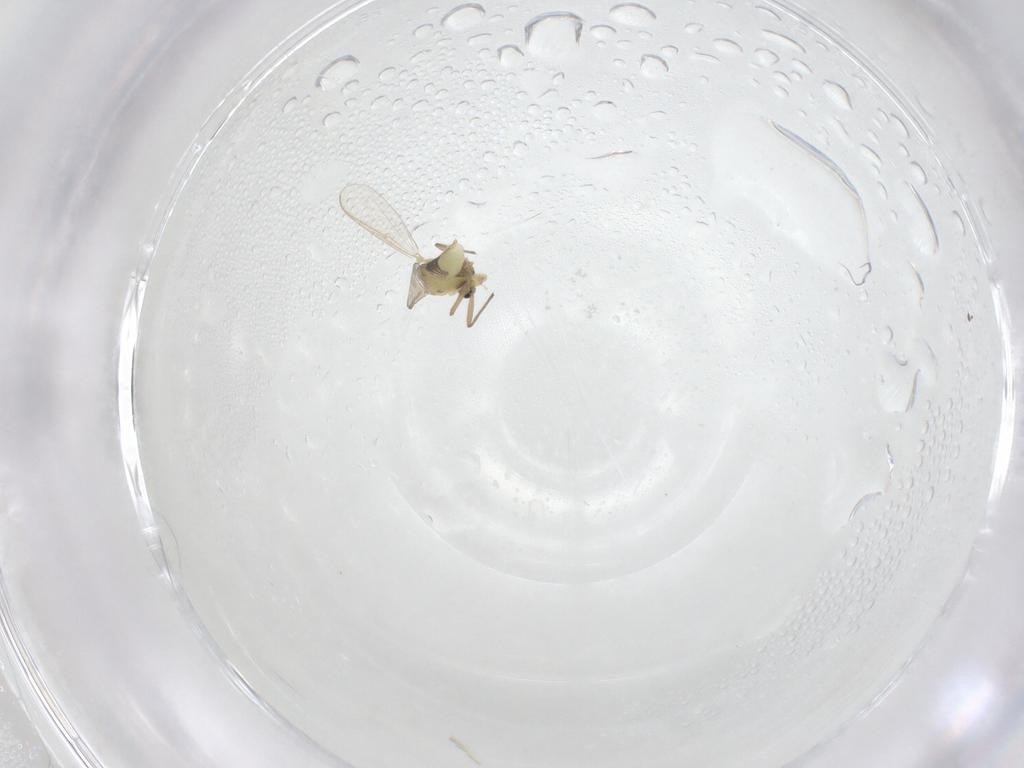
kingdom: Animalia
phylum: Arthropoda
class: Insecta
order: Diptera
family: Chironomidae
